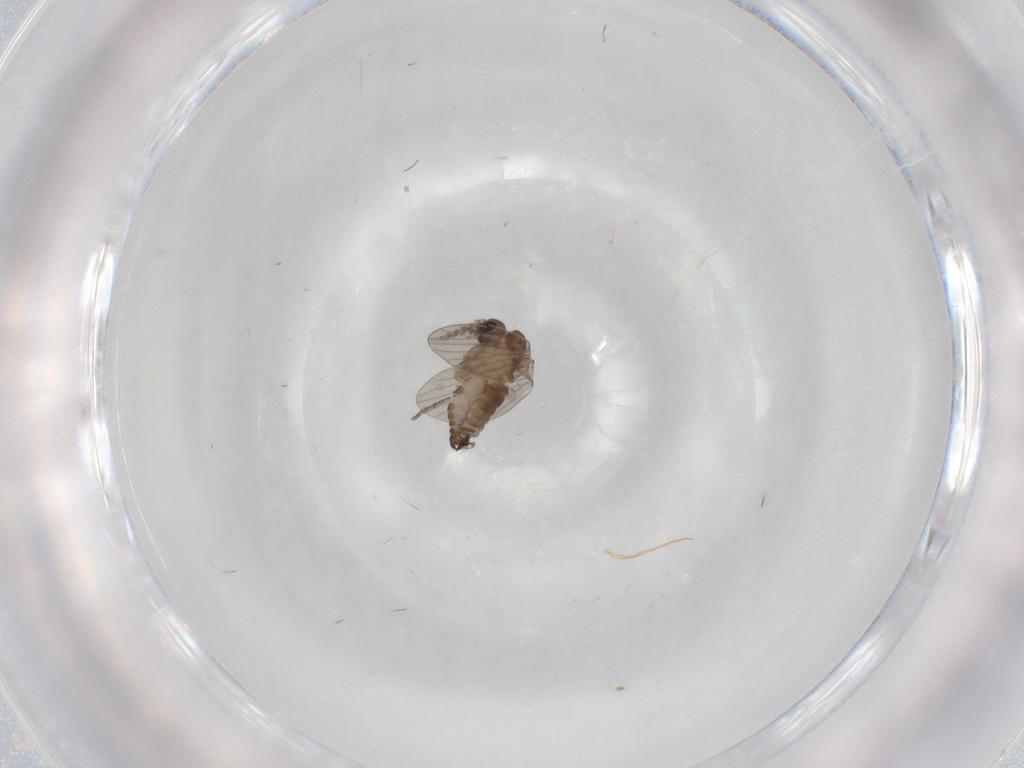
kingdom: Animalia
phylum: Arthropoda
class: Insecta
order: Diptera
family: Cecidomyiidae
